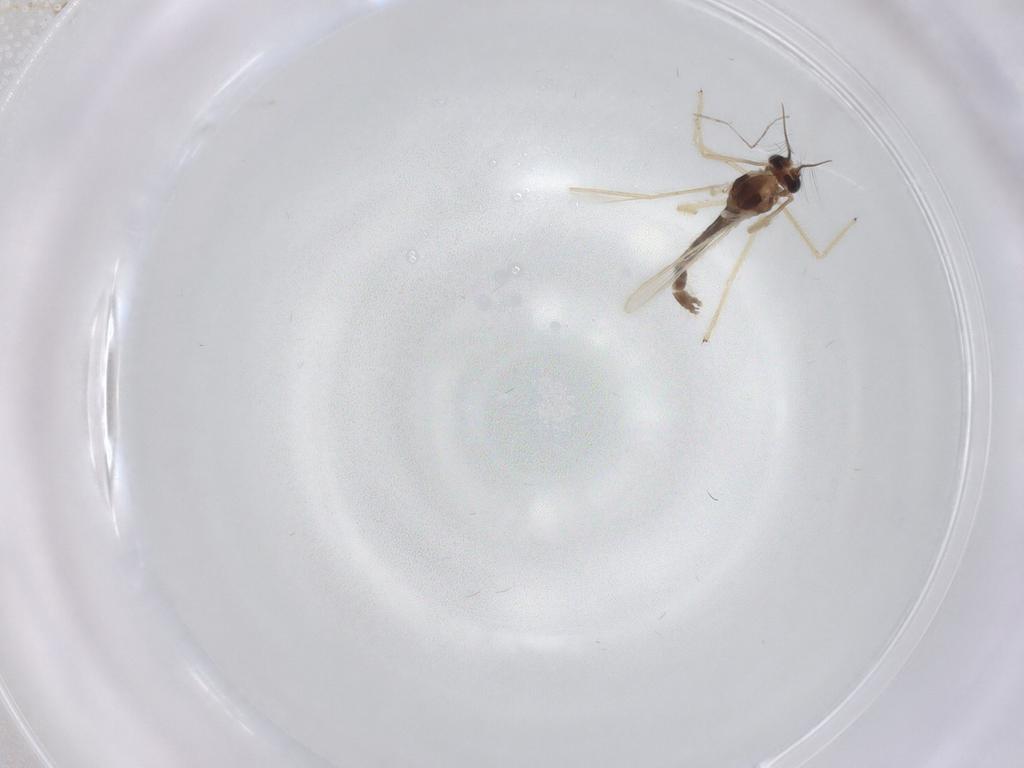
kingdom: Animalia
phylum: Arthropoda
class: Insecta
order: Diptera
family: Chironomidae
